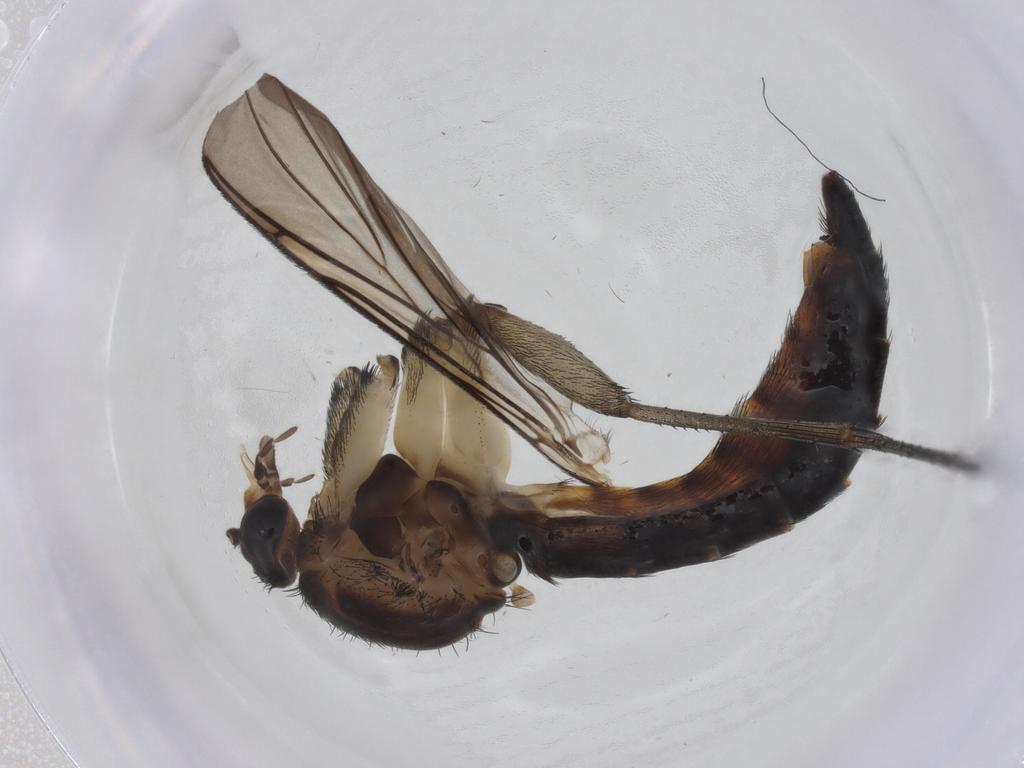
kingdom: Animalia
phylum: Arthropoda
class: Insecta
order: Diptera
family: Cecidomyiidae
